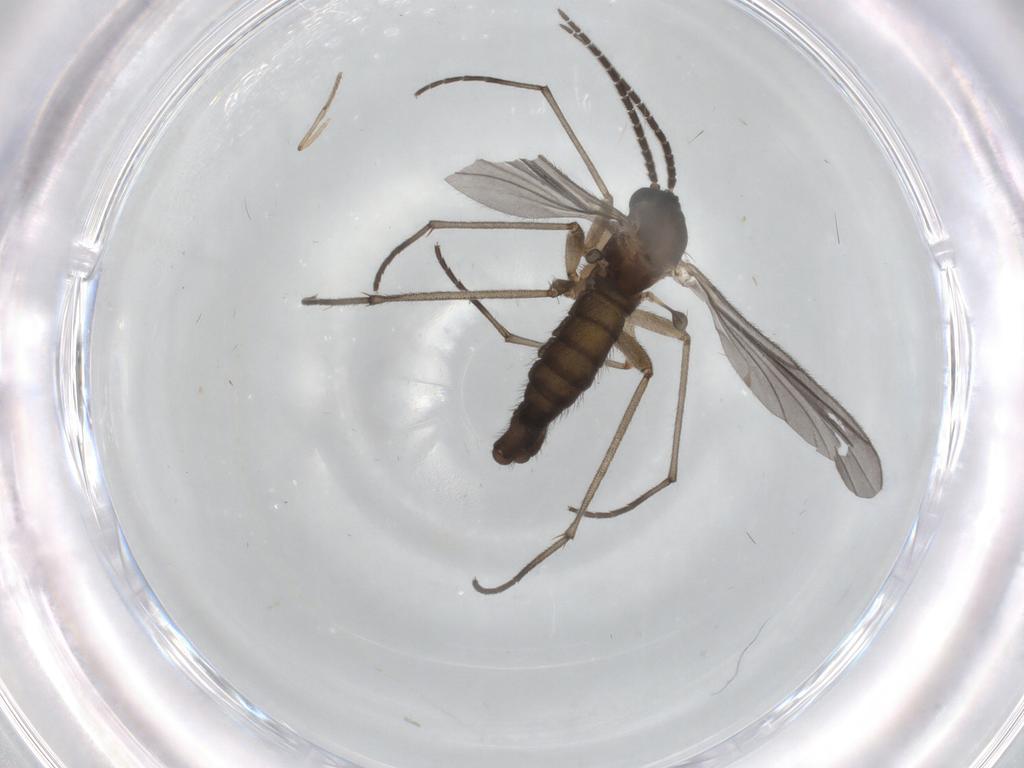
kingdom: Animalia
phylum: Arthropoda
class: Insecta
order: Diptera
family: Sciaridae
